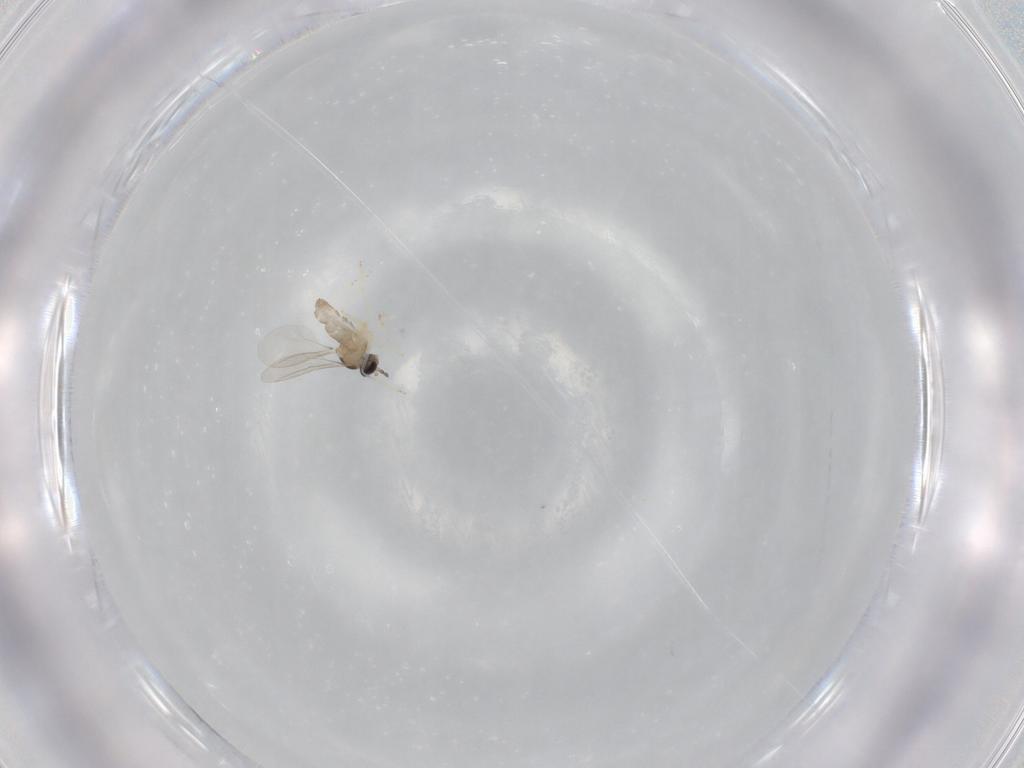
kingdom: Animalia
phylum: Arthropoda
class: Insecta
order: Diptera
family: Cecidomyiidae
